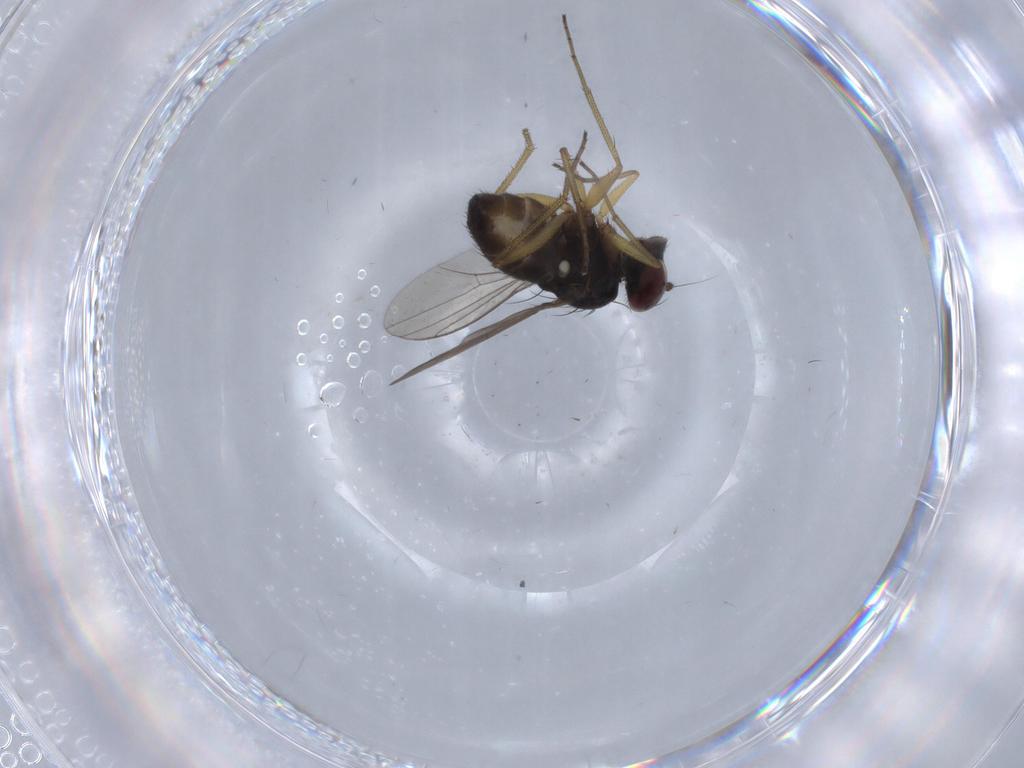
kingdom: Animalia
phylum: Arthropoda
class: Insecta
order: Diptera
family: Dolichopodidae
